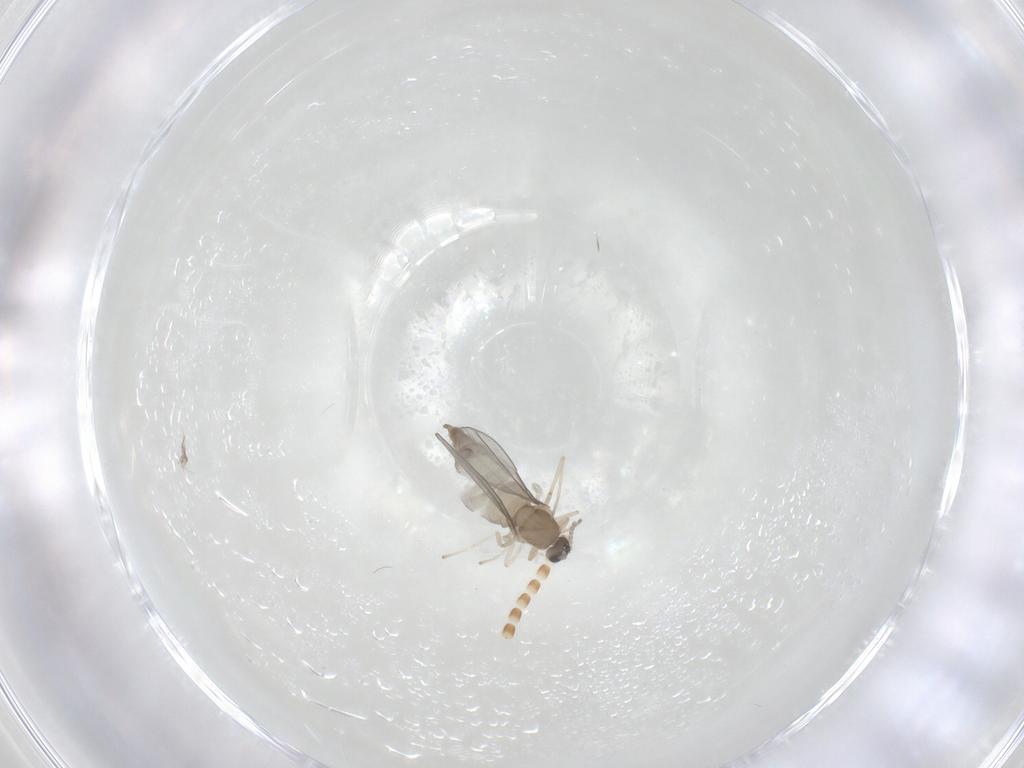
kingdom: Animalia
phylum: Arthropoda
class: Insecta
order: Diptera
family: Cecidomyiidae
